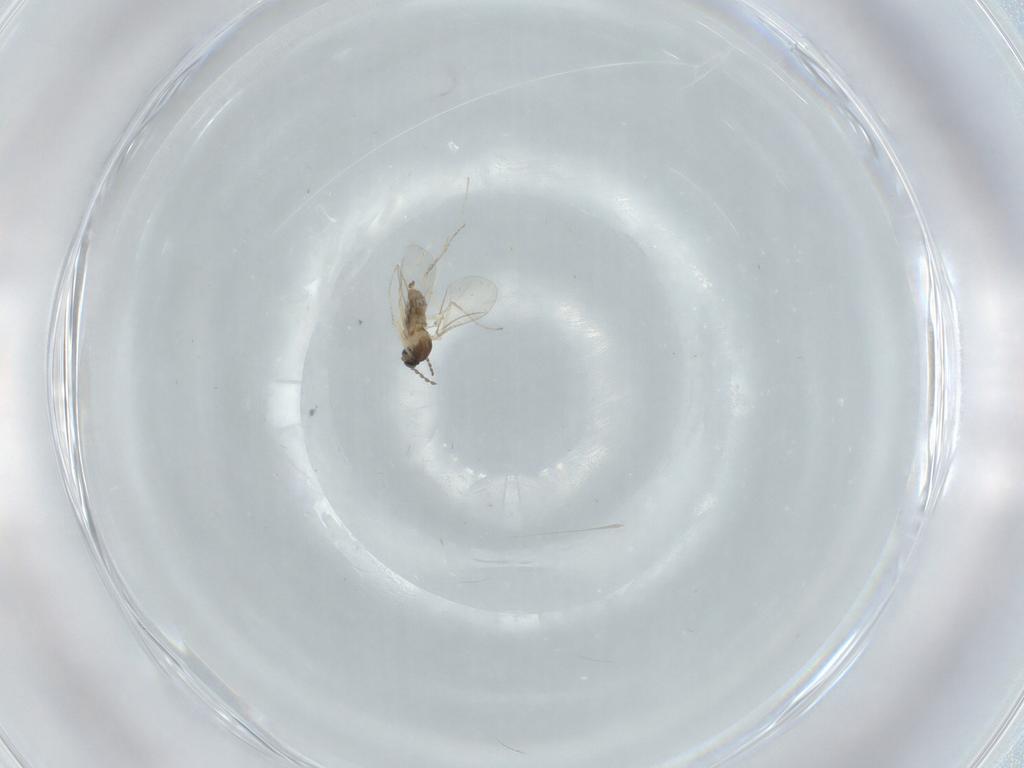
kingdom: Animalia
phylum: Arthropoda
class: Insecta
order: Diptera
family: Cecidomyiidae
